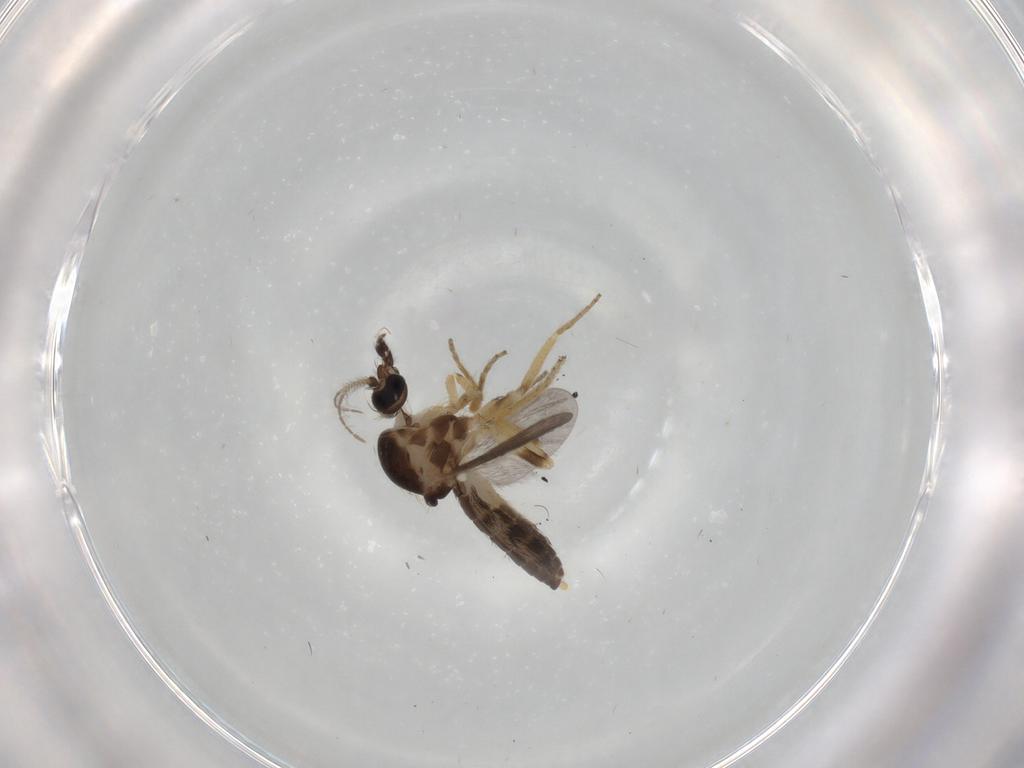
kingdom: Animalia
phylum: Arthropoda
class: Insecta
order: Diptera
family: Ceratopogonidae
